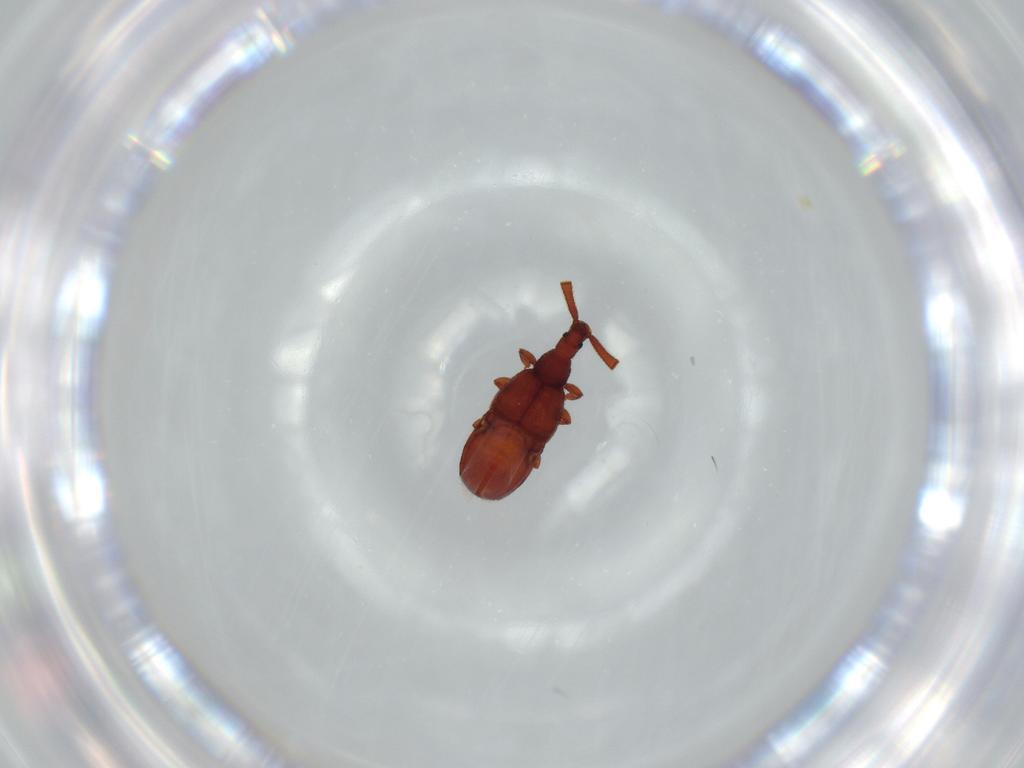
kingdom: Animalia
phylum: Arthropoda
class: Insecta
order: Coleoptera
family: Staphylinidae
